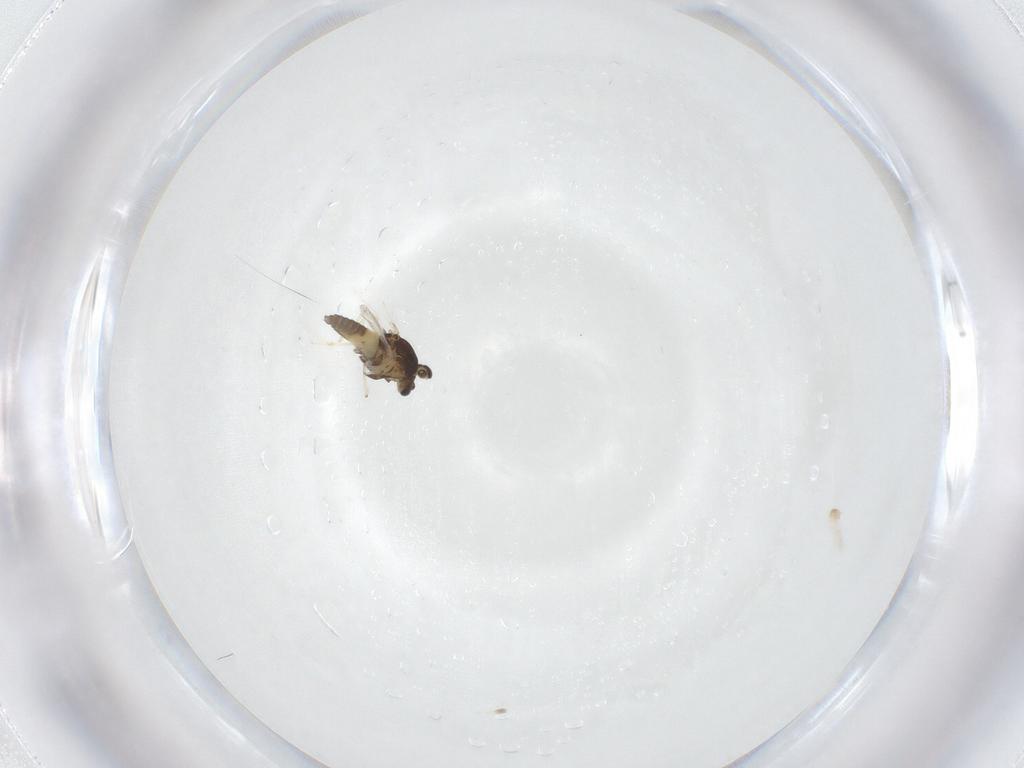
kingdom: Animalia
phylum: Arthropoda
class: Insecta
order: Diptera
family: Chironomidae
